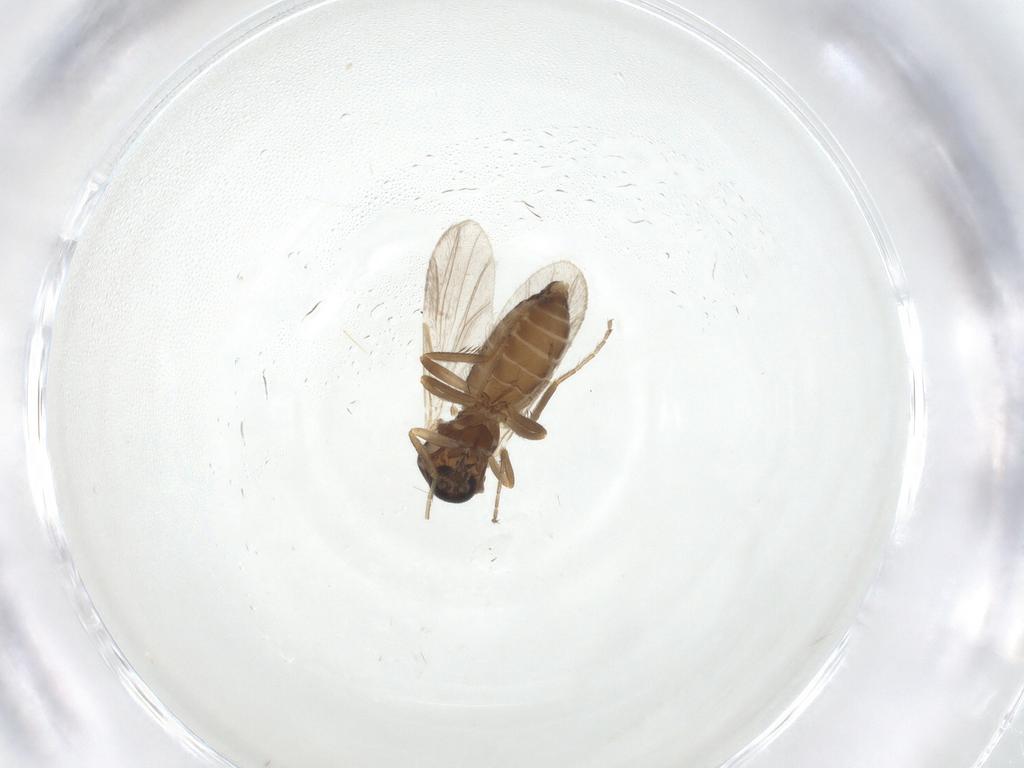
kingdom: Animalia
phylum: Arthropoda
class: Insecta
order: Diptera
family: Ceratopogonidae
